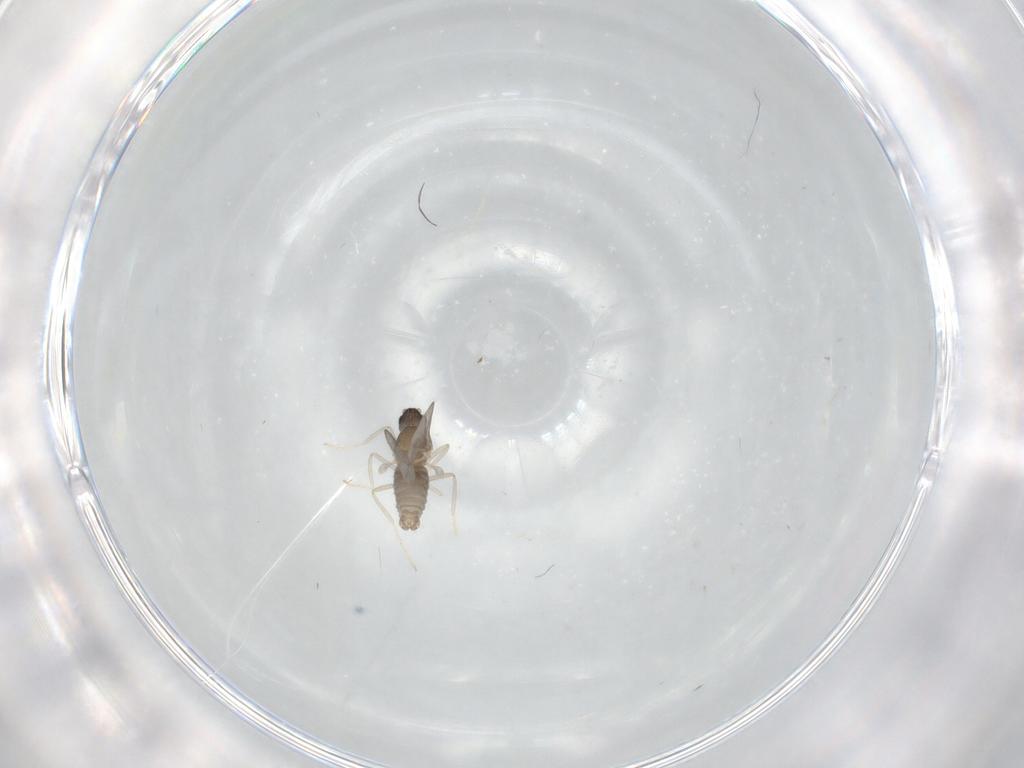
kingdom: Animalia
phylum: Arthropoda
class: Insecta
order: Diptera
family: Cecidomyiidae
